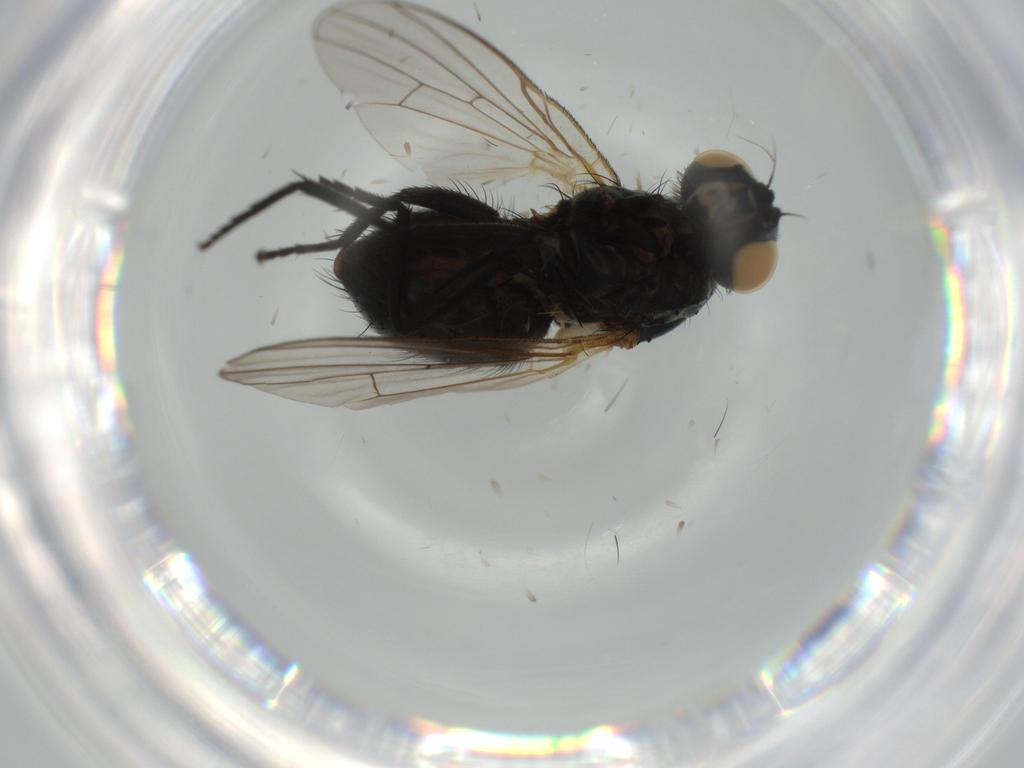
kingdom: Animalia
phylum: Arthropoda
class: Insecta
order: Diptera
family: Muscidae
